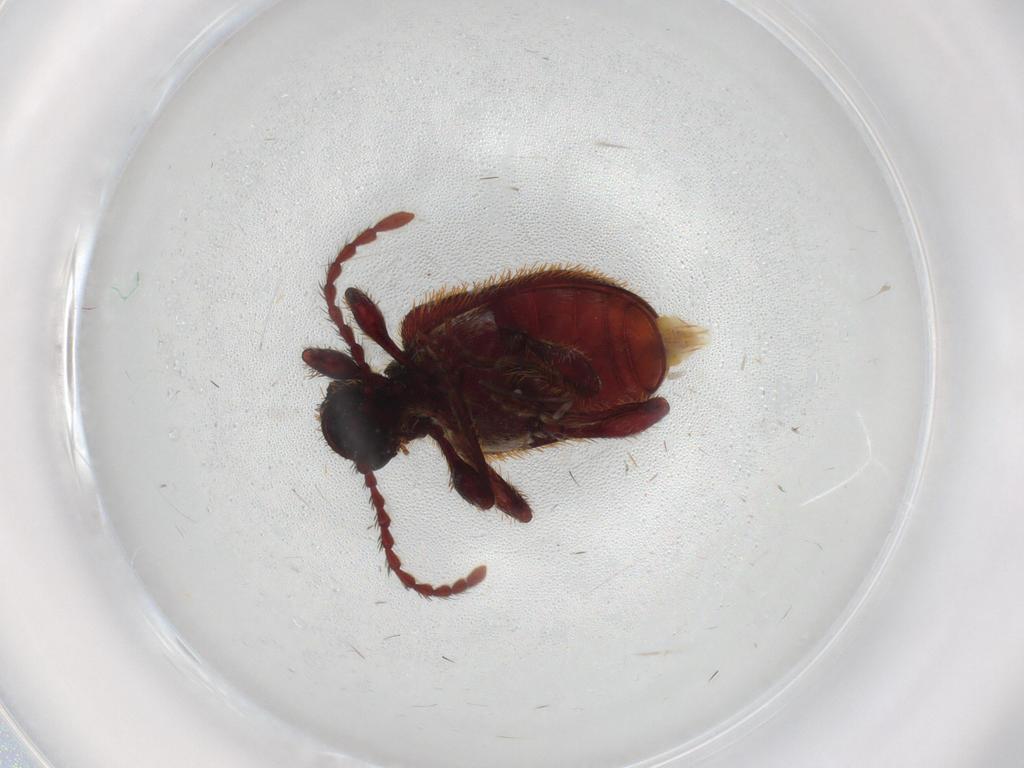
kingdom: Animalia
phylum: Arthropoda
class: Insecta
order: Coleoptera
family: Ptinidae
